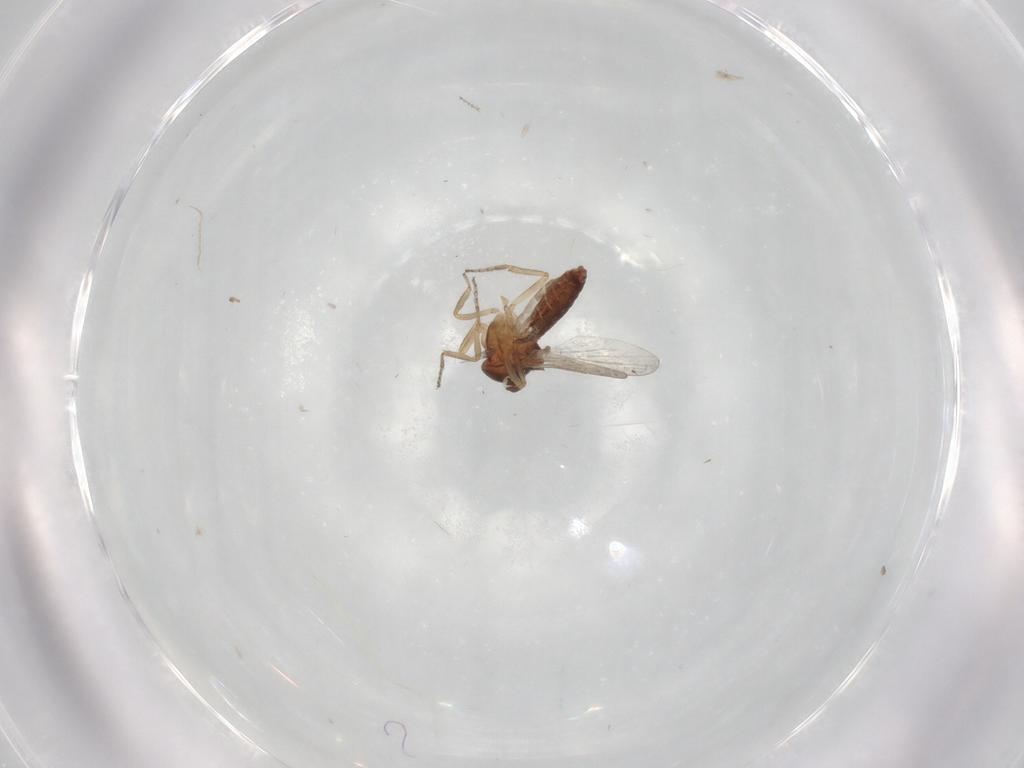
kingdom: Animalia
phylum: Arthropoda
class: Insecta
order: Diptera
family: Ceratopogonidae
